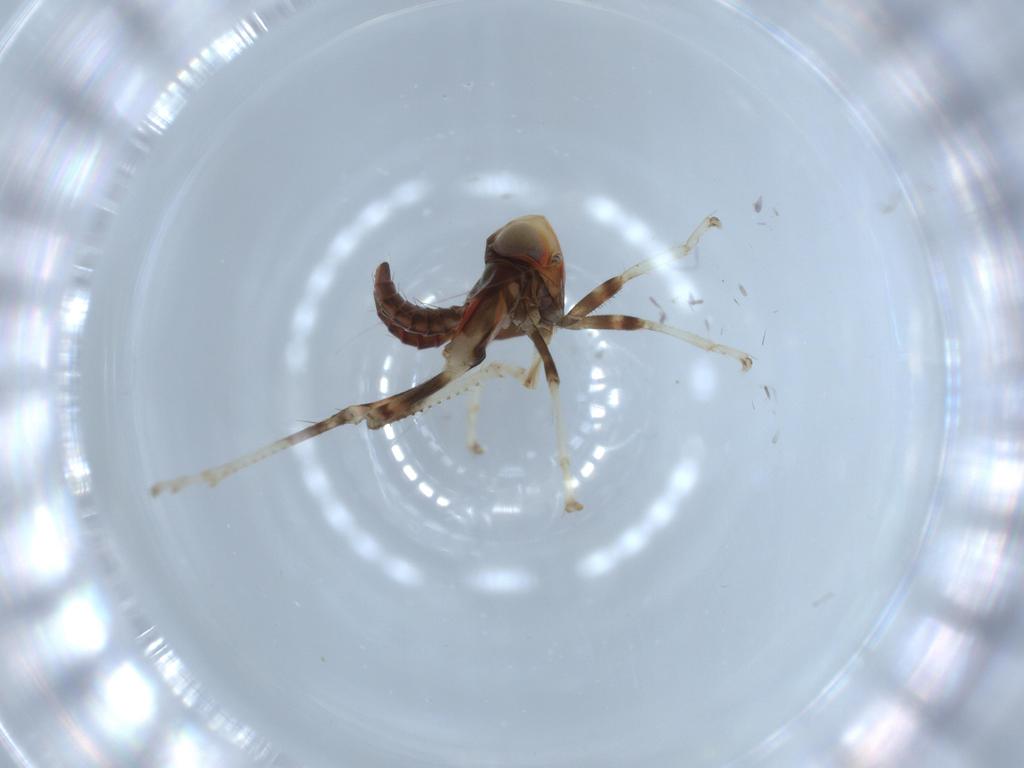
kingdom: Animalia
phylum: Arthropoda
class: Insecta
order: Hemiptera
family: Cicadellidae
